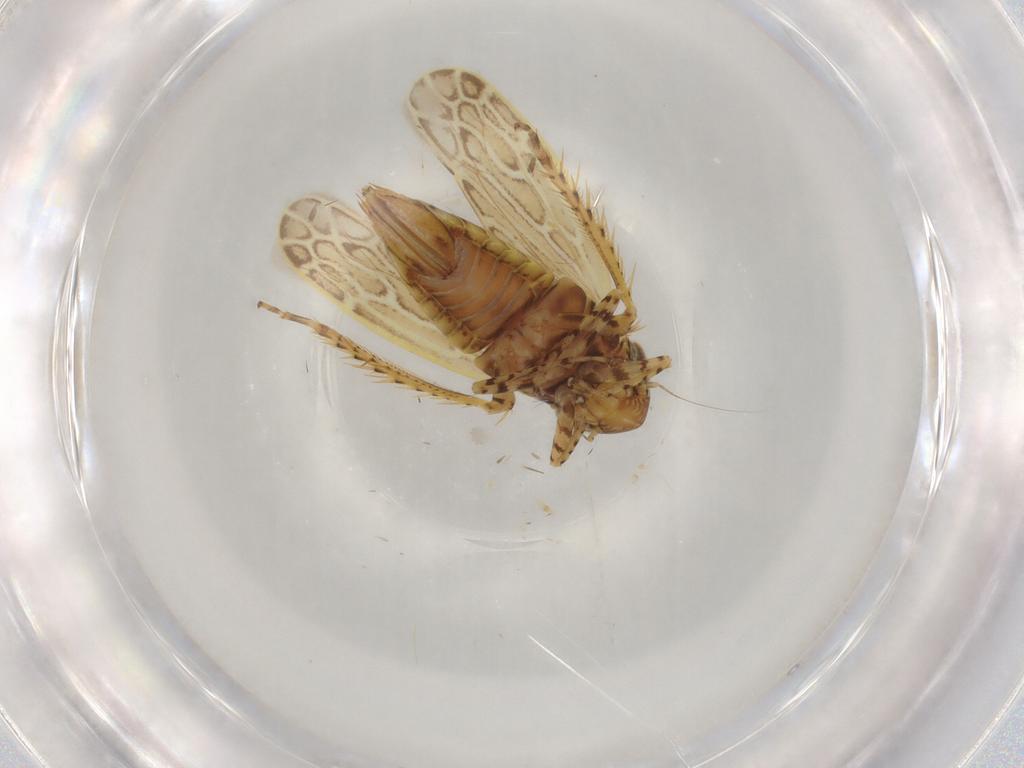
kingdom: Animalia
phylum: Arthropoda
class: Insecta
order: Hemiptera
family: Cicadellidae
